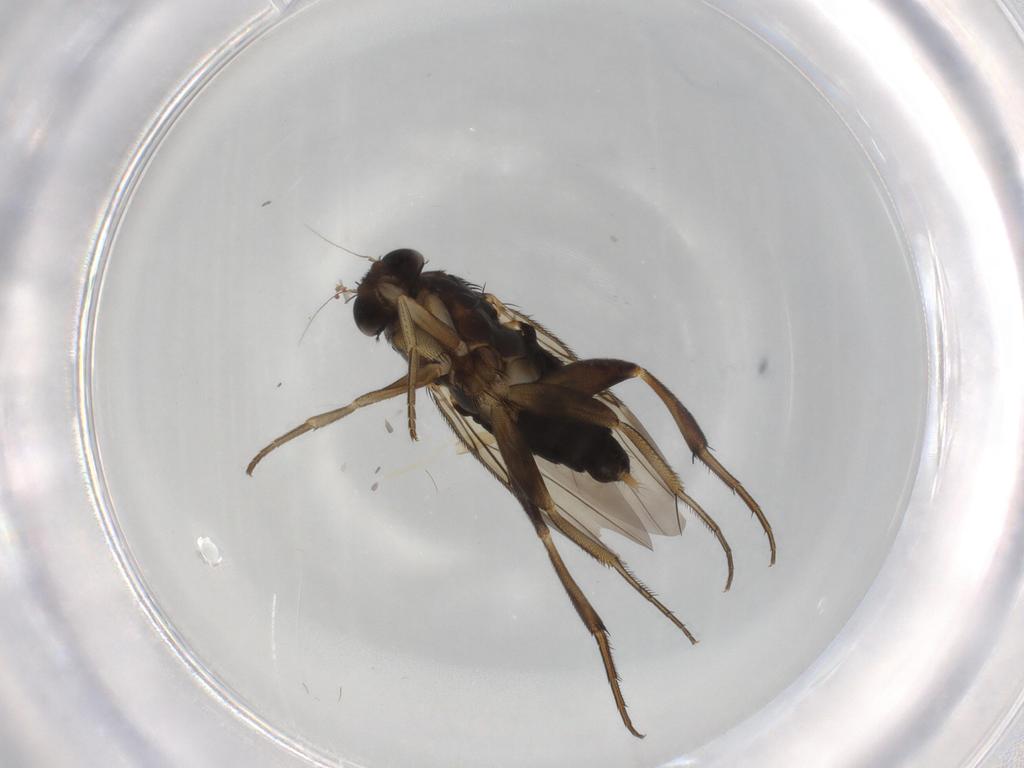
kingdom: Animalia
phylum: Arthropoda
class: Insecta
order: Diptera
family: Phoridae
